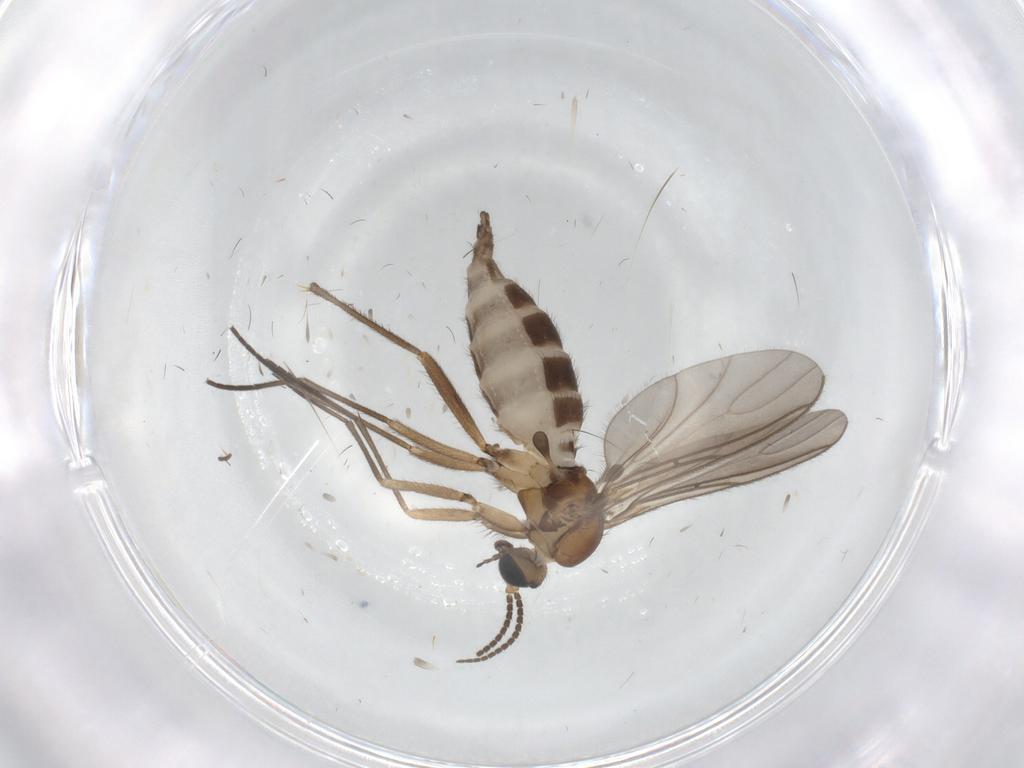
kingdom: Animalia
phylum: Arthropoda
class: Insecta
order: Diptera
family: Sciaridae
